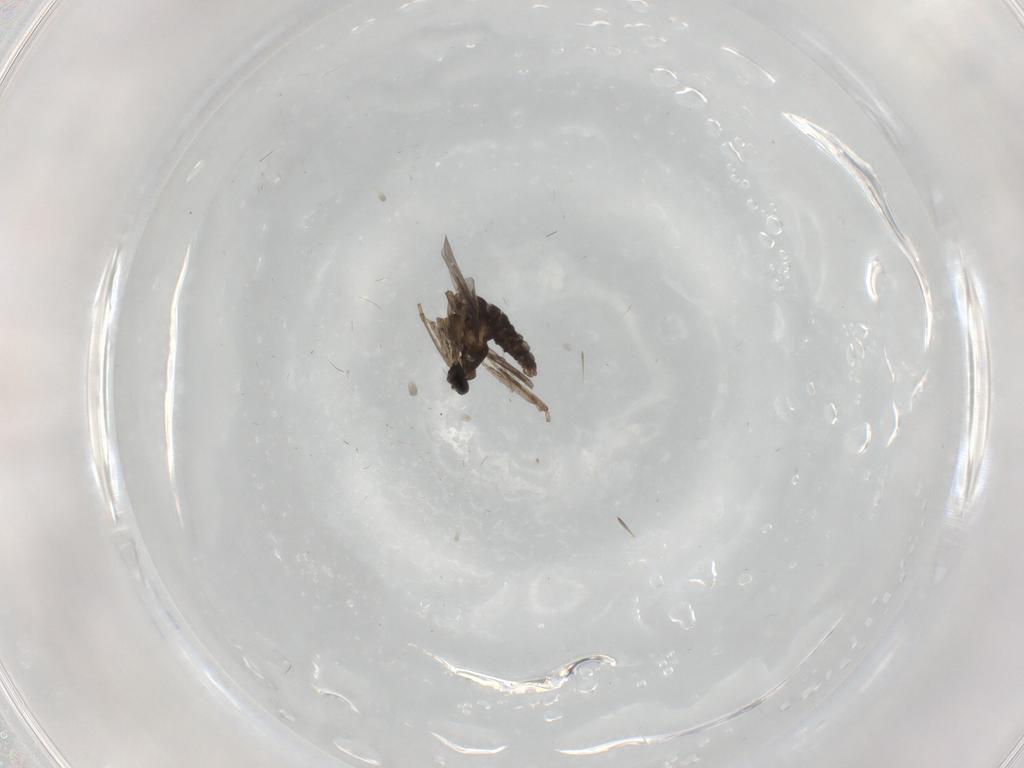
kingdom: Animalia
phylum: Arthropoda
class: Insecta
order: Diptera
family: Cecidomyiidae
